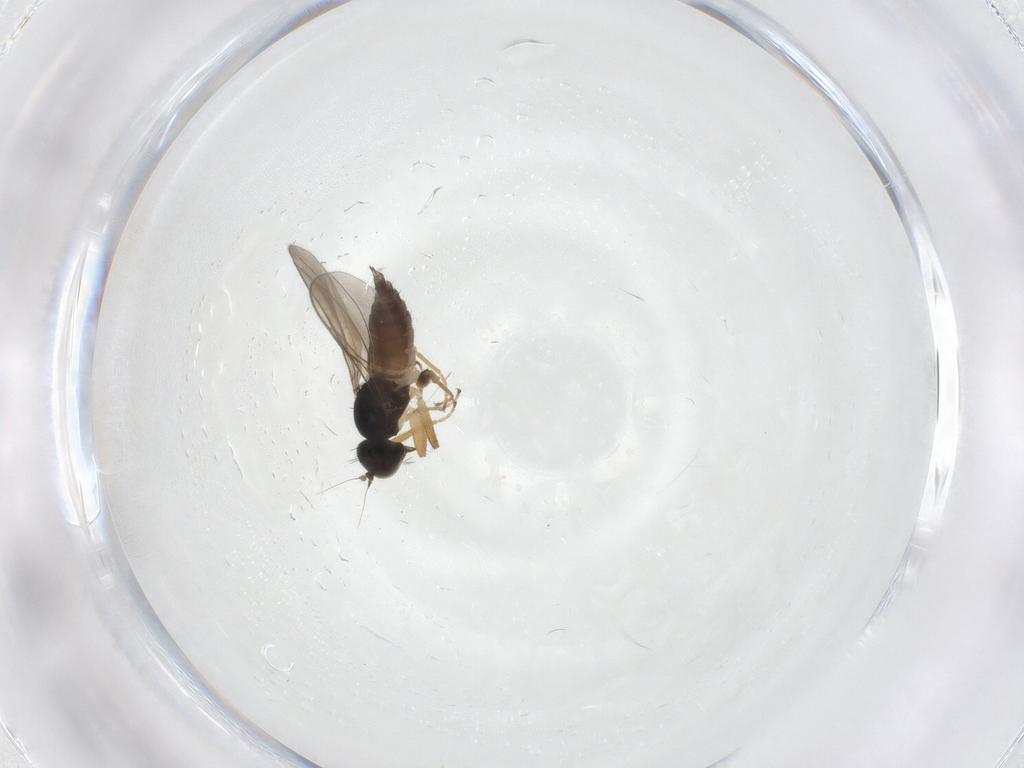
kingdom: Animalia
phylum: Arthropoda
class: Insecta
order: Diptera
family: Hybotidae
